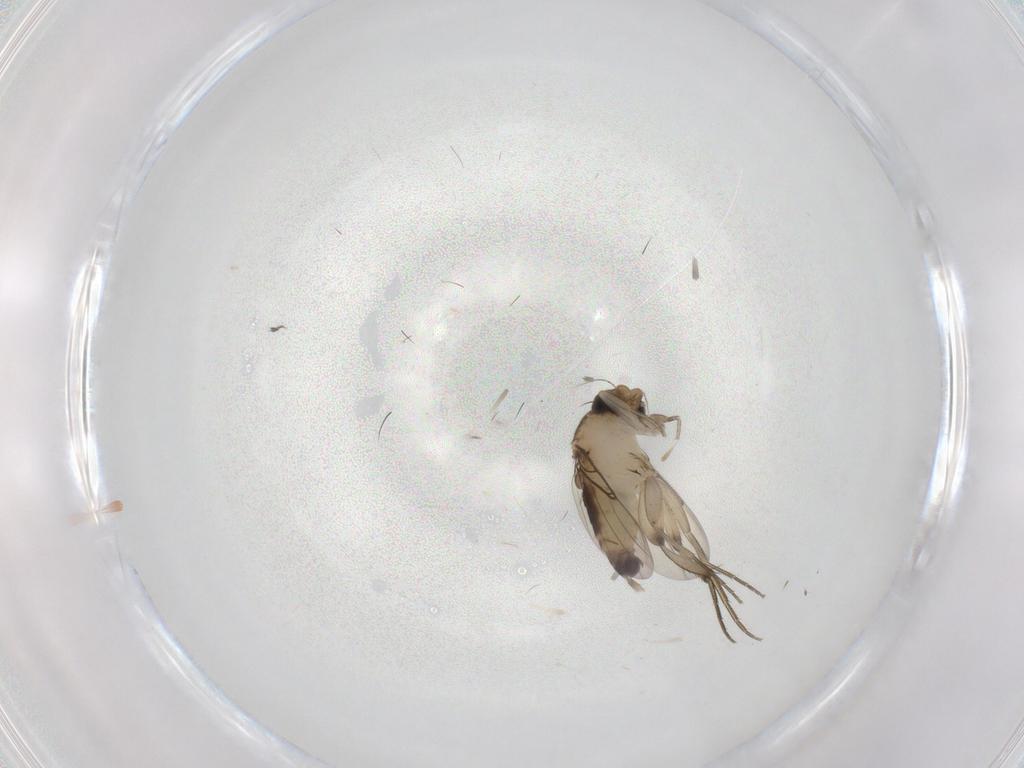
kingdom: Animalia
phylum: Arthropoda
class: Insecta
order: Diptera
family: Phoridae
